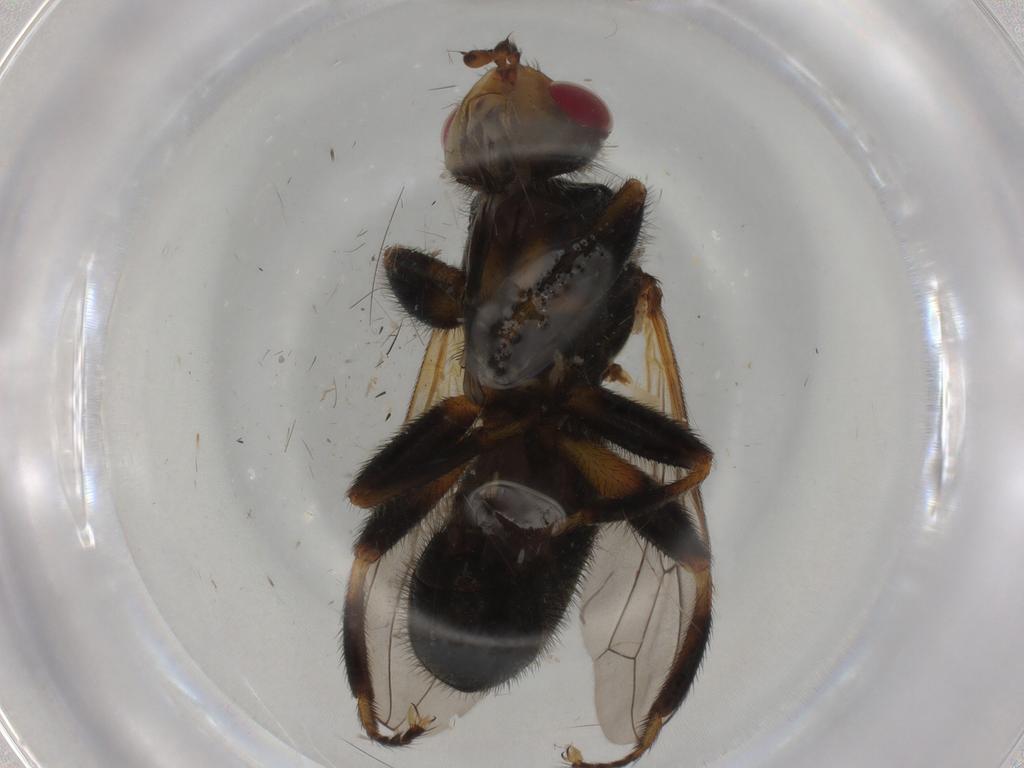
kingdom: Animalia
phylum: Arthropoda
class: Insecta
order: Diptera
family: Conopidae
